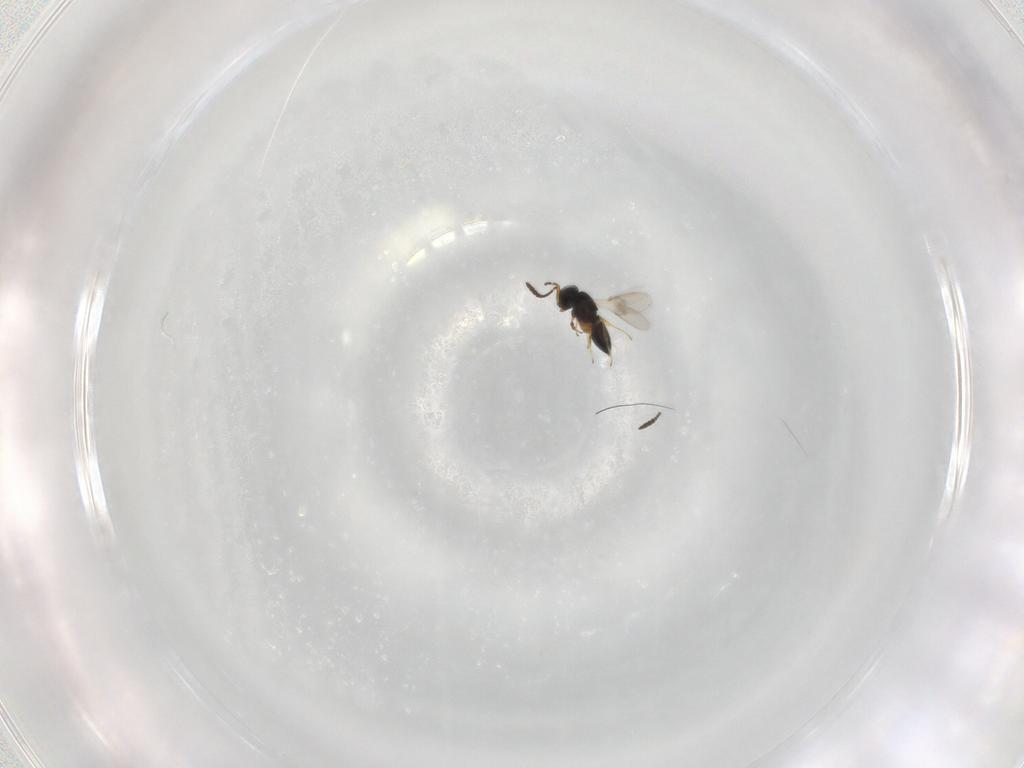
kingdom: Animalia
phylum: Arthropoda
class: Insecta
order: Hymenoptera
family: Scelionidae
